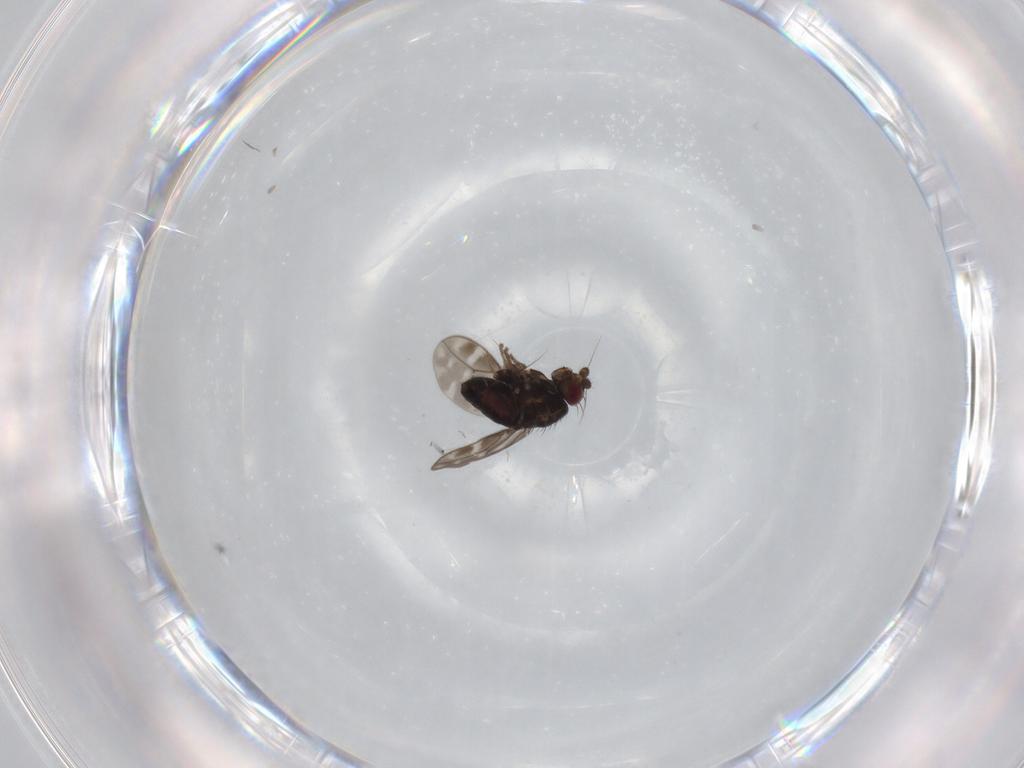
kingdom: Animalia
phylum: Arthropoda
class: Insecta
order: Diptera
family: Sphaeroceridae
